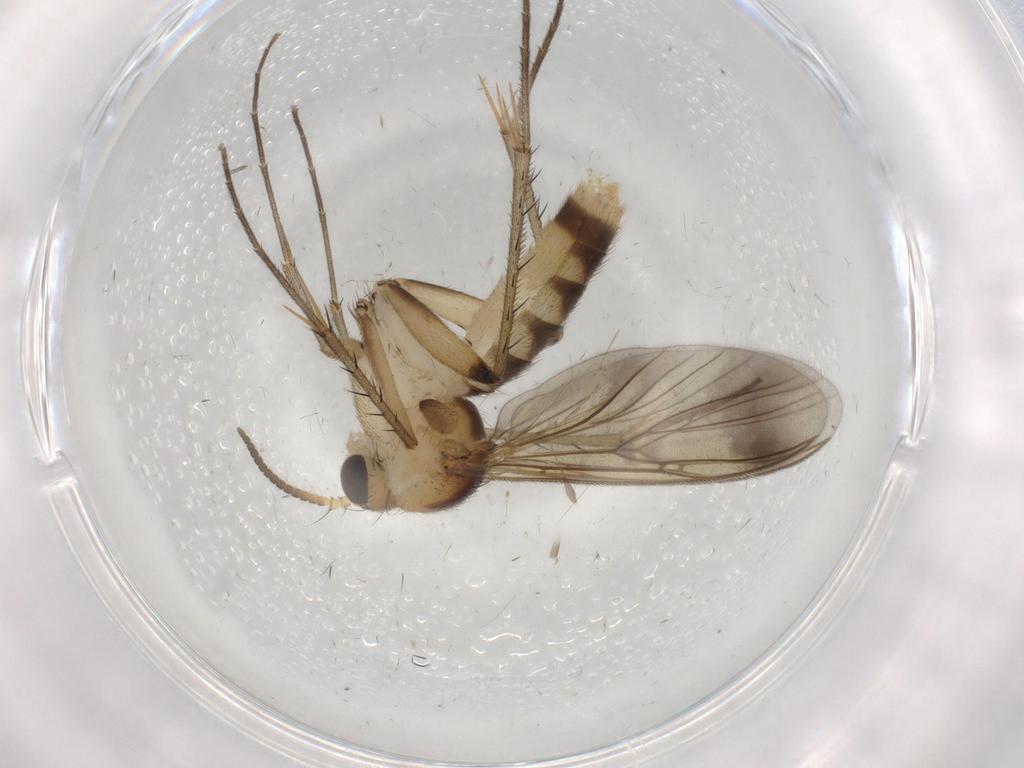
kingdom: Animalia
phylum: Arthropoda
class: Insecta
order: Diptera
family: Mycetophilidae
